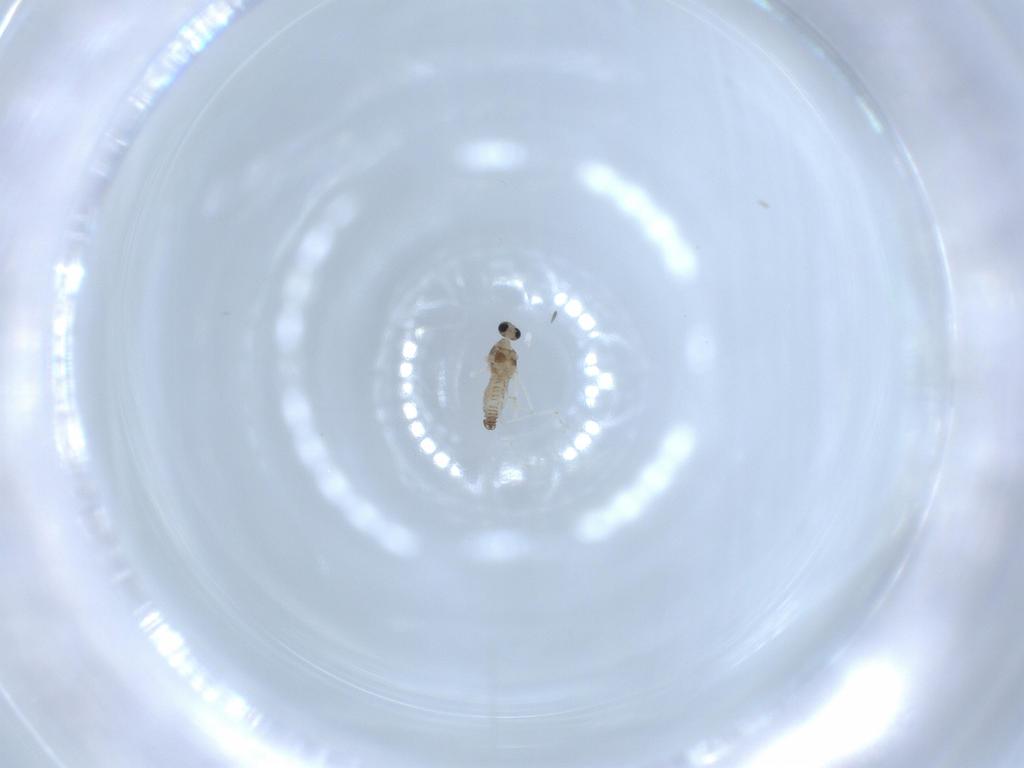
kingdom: Animalia
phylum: Arthropoda
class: Insecta
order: Diptera
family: Cecidomyiidae
